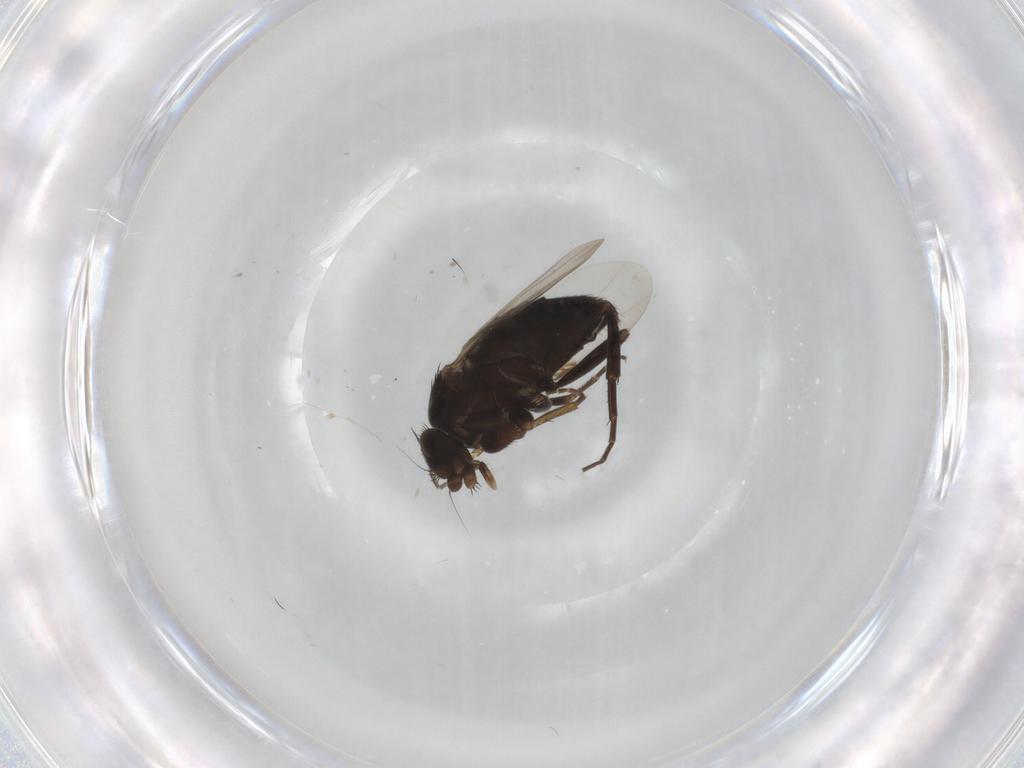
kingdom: Animalia
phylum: Arthropoda
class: Insecta
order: Diptera
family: Phoridae
